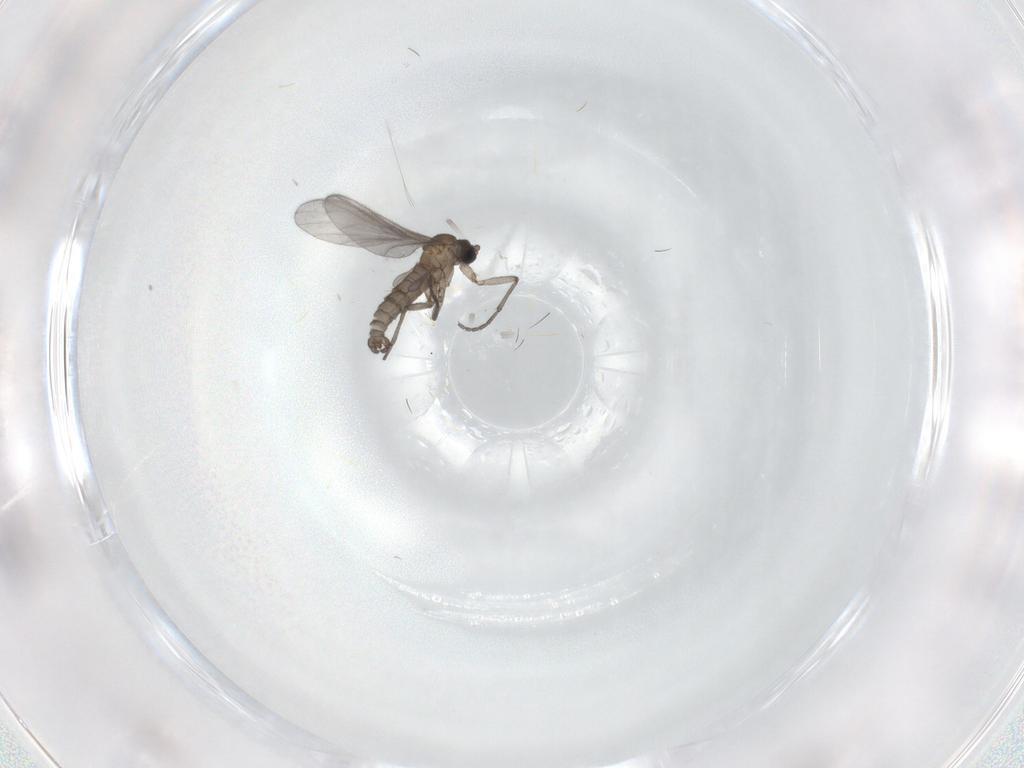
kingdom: Animalia
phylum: Arthropoda
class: Insecta
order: Diptera
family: Sciaridae
